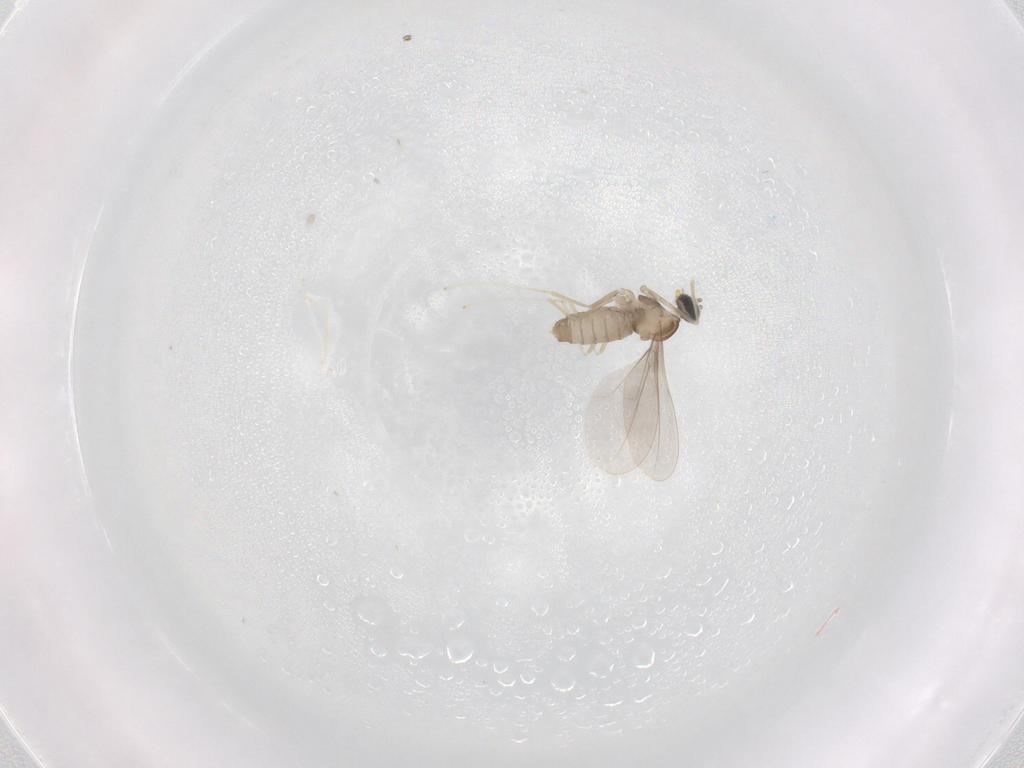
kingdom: Animalia
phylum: Arthropoda
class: Insecta
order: Diptera
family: Cecidomyiidae
